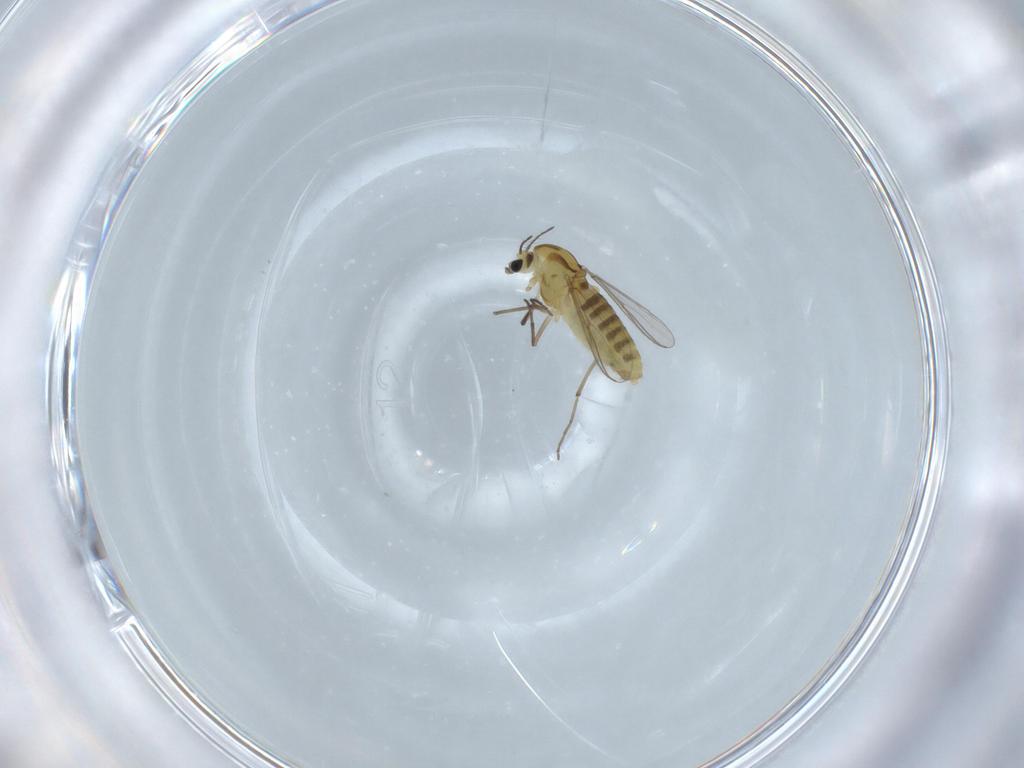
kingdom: Animalia
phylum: Arthropoda
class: Insecta
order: Diptera
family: Chironomidae
